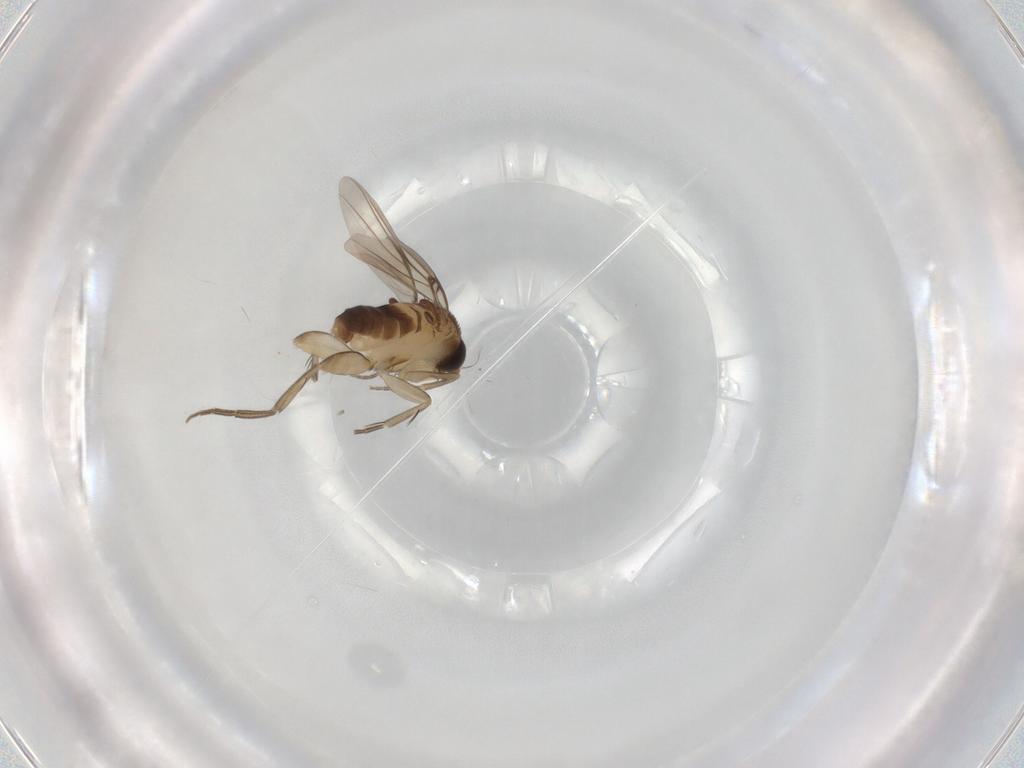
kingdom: Animalia
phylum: Arthropoda
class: Insecta
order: Diptera
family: Phoridae
